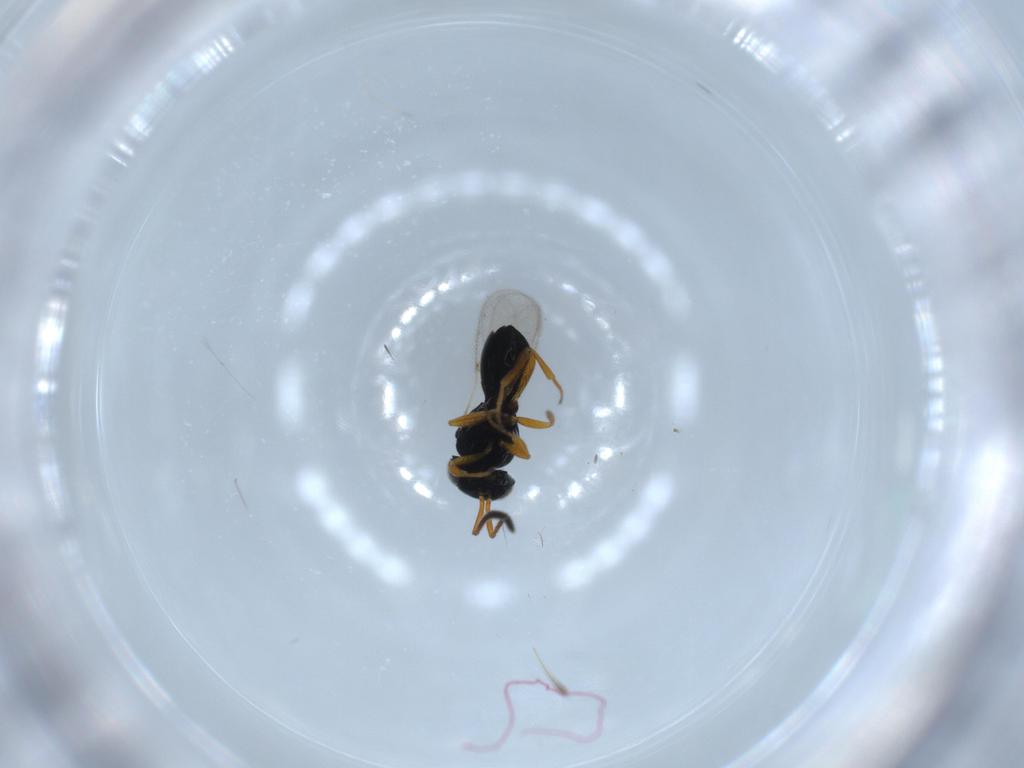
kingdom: Animalia
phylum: Arthropoda
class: Insecta
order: Hymenoptera
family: Scelionidae
